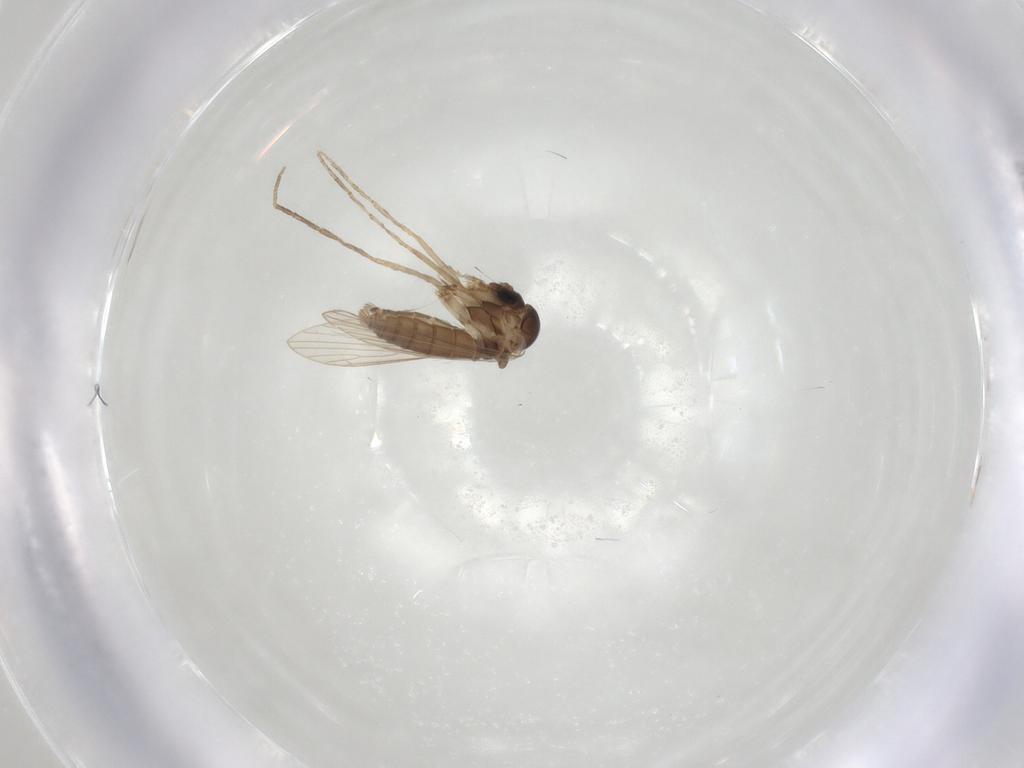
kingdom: Animalia
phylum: Arthropoda
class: Insecta
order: Diptera
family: Psychodidae
